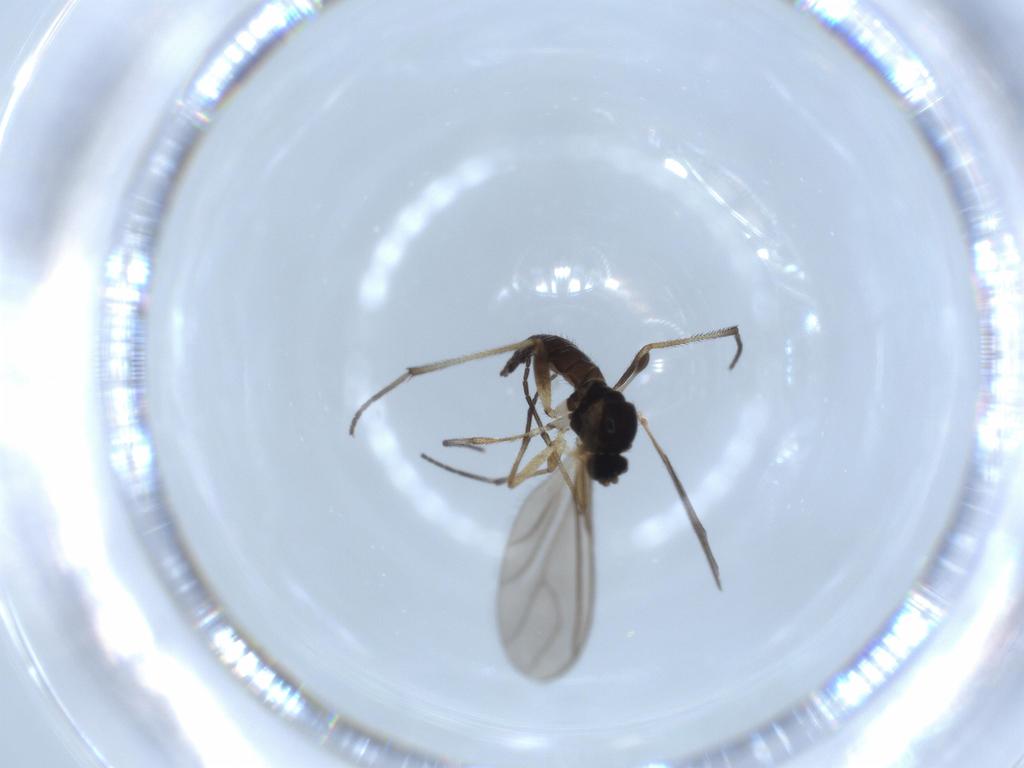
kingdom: Animalia
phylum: Arthropoda
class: Insecta
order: Diptera
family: Sciaridae
